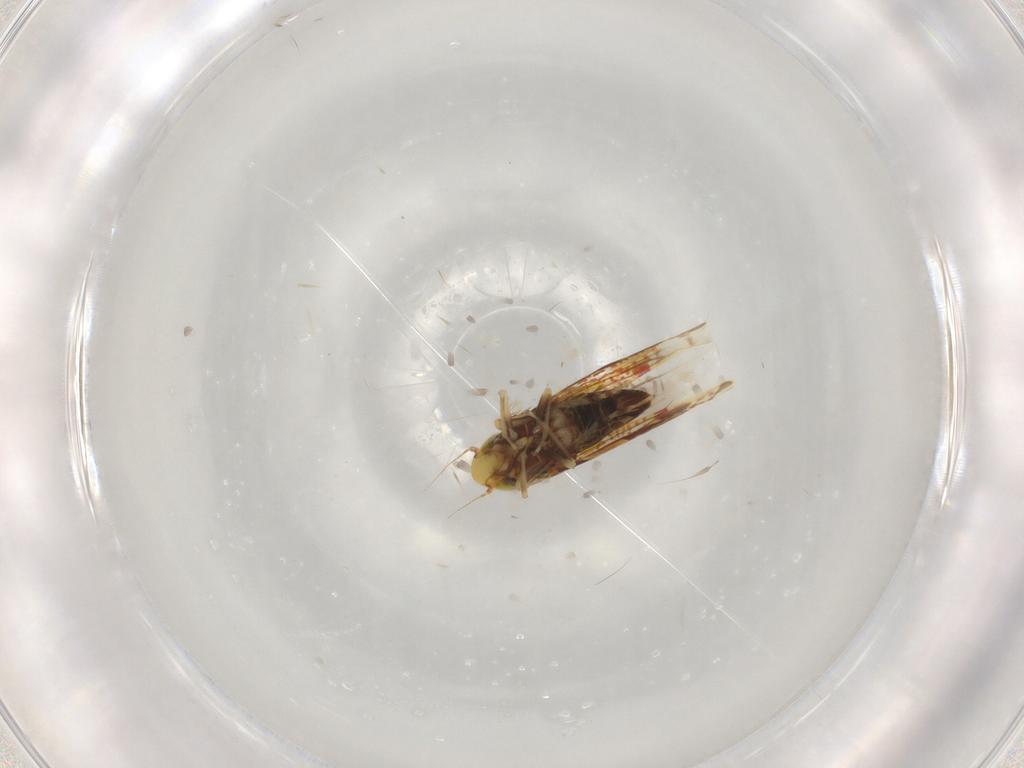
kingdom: Animalia
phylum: Arthropoda
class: Insecta
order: Hemiptera
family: Cicadellidae
